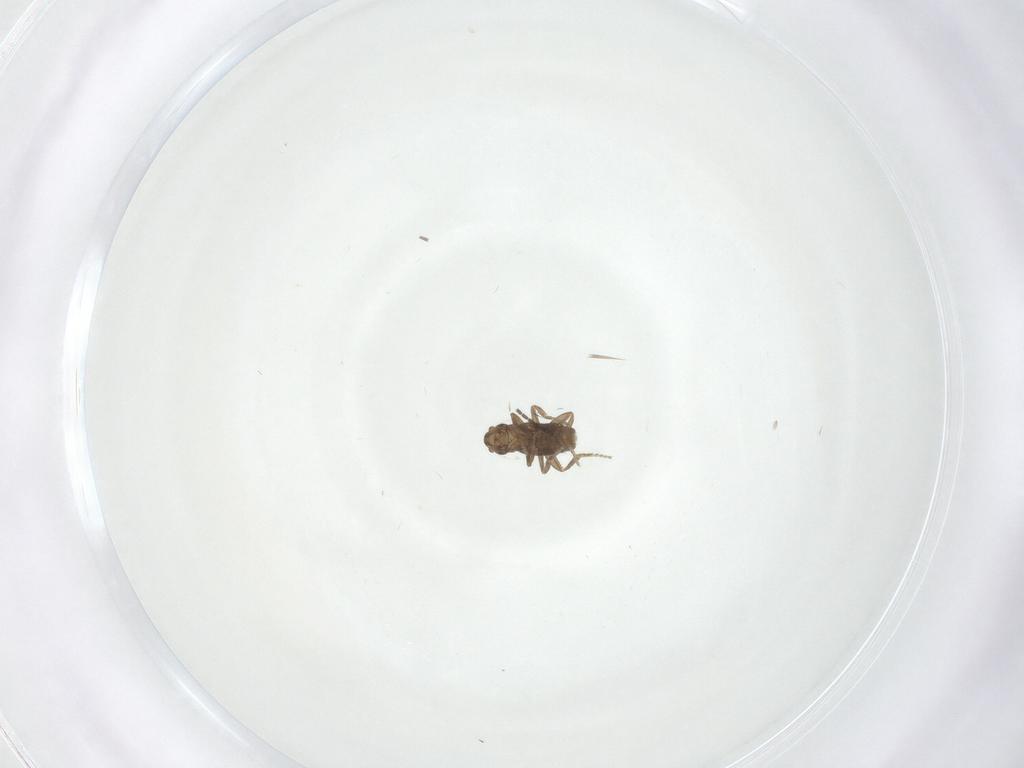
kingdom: Animalia
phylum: Arthropoda
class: Insecta
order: Diptera
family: Phoridae
